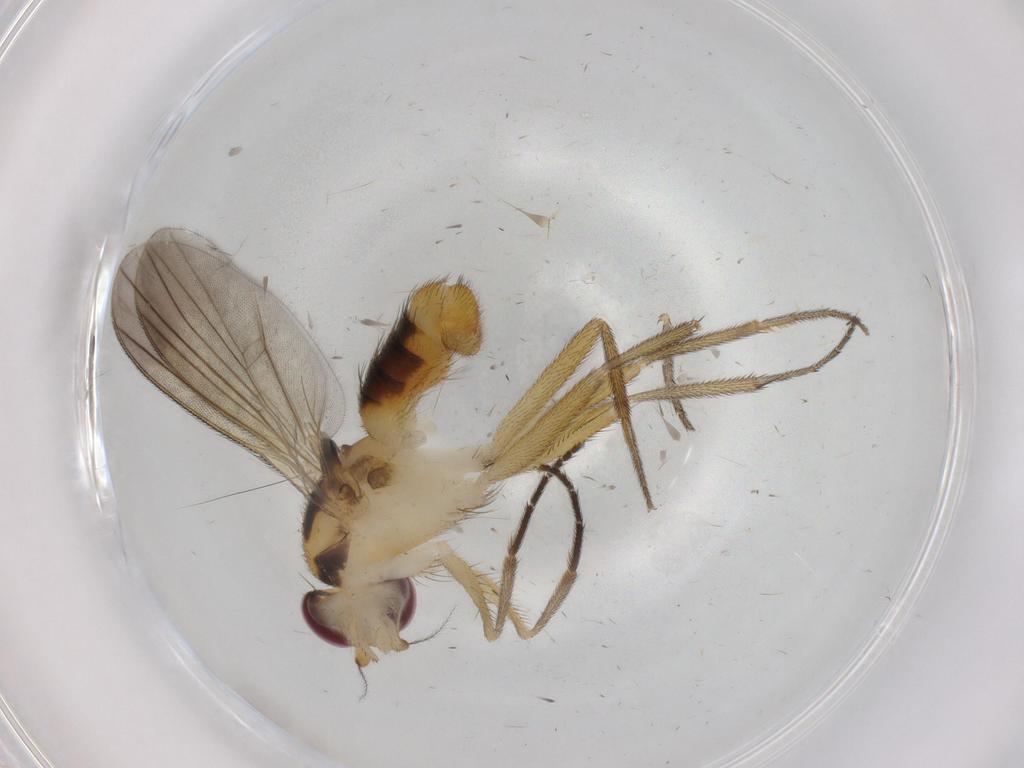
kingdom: Animalia
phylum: Arthropoda
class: Insecta
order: Diptera
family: Clusiidae
